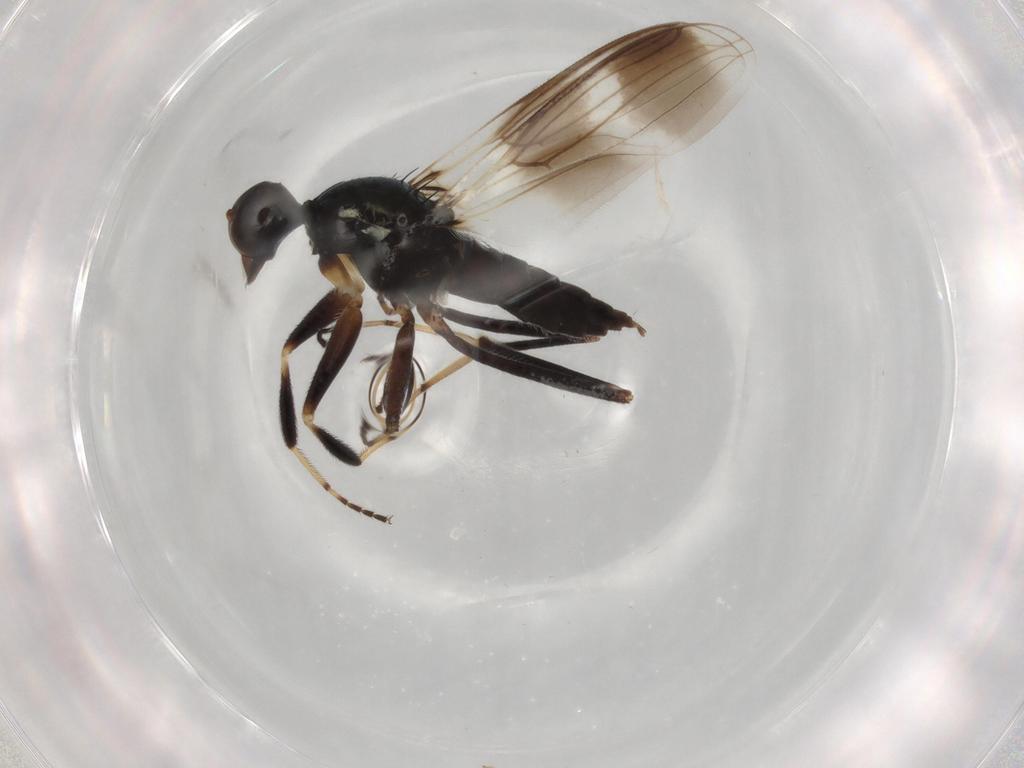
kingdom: Animalia
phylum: Arthropoda
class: Insecta
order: Diptera
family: Hybotidae
